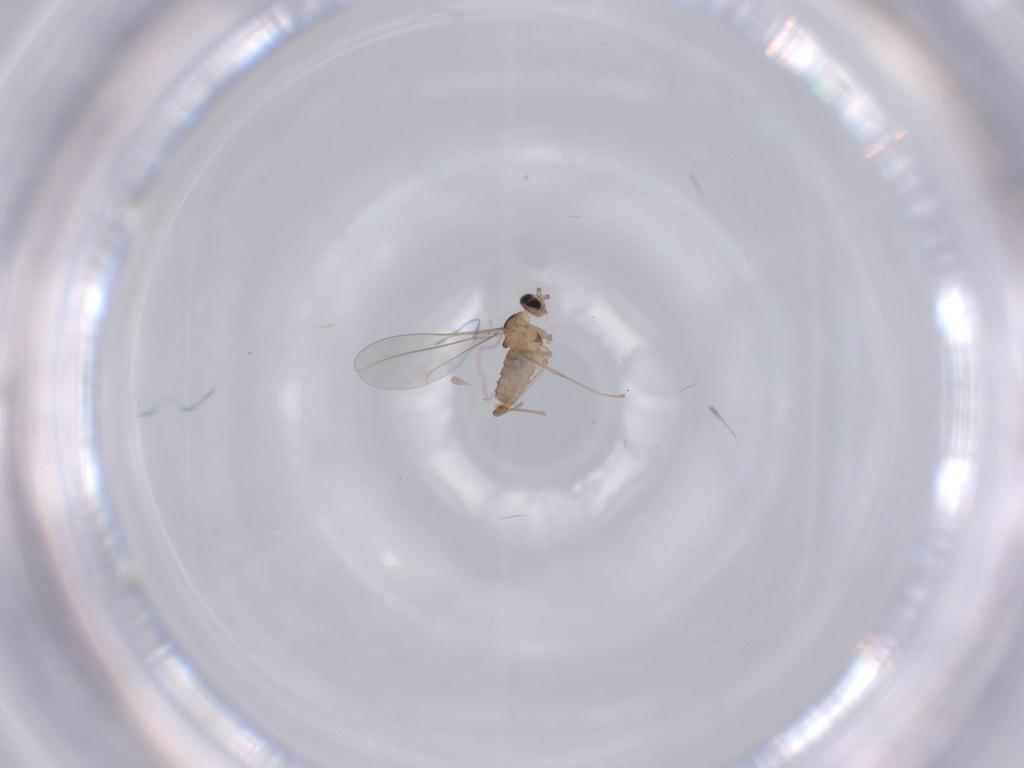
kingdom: Animalia
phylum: Arthropoda
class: Insecta
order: Diptera
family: Cecidomyiidae
